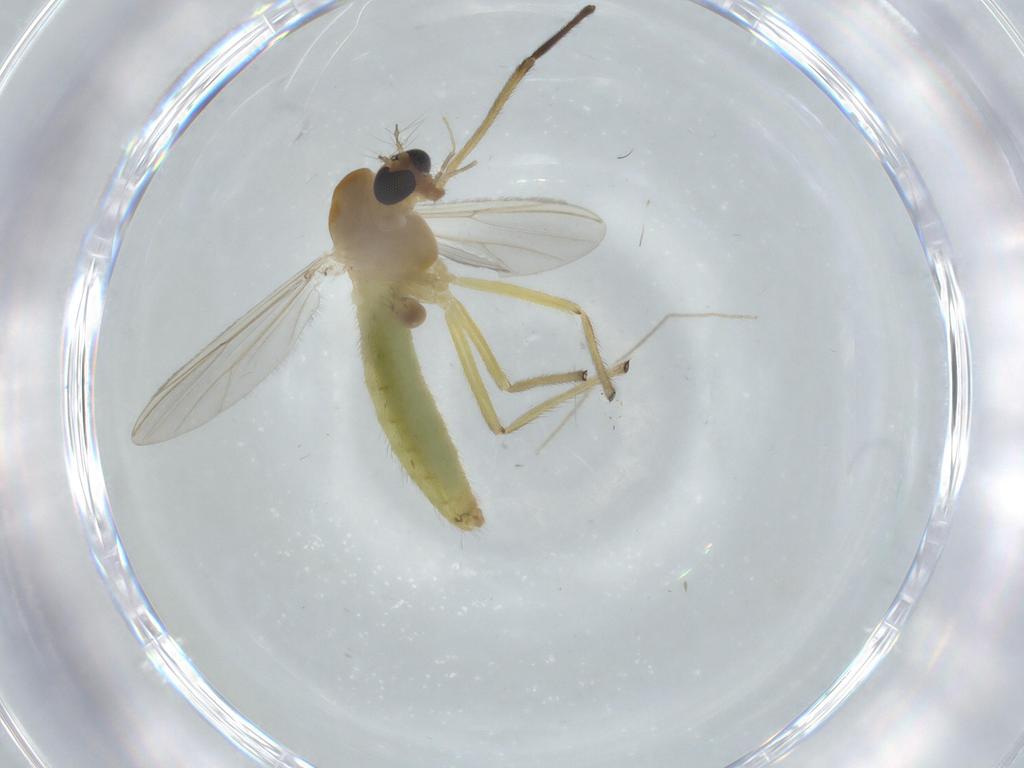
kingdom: Animalia
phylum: Arthropoda
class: Insecta
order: Diptera
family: Chironomidae
